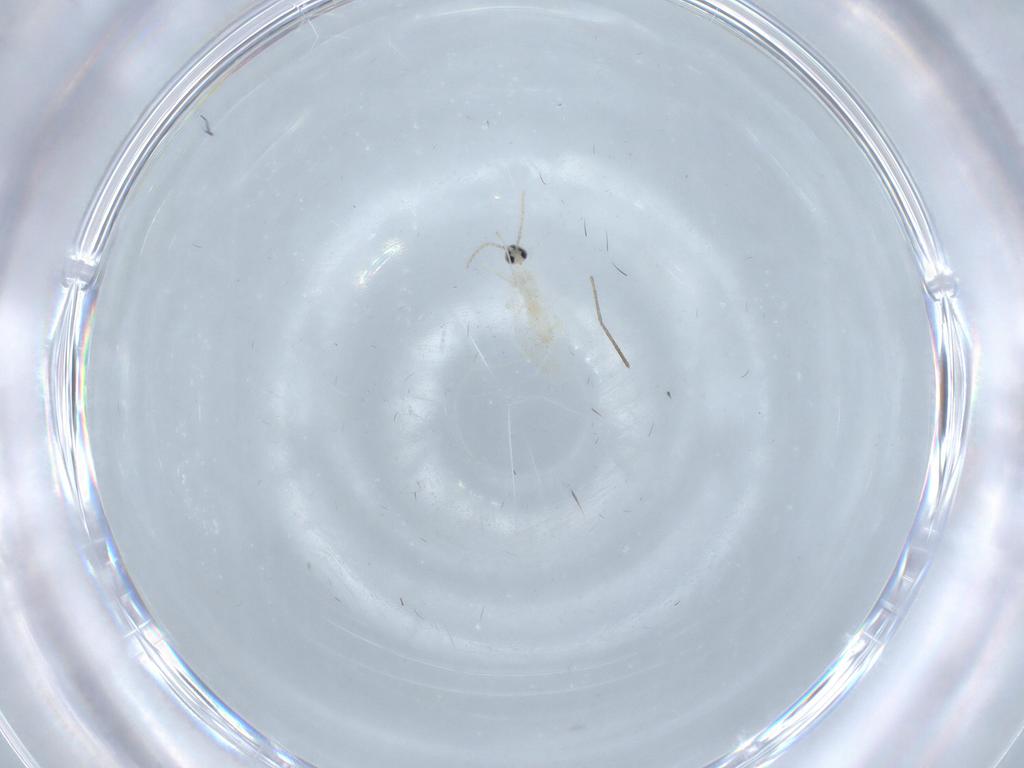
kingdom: Animalia
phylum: Arthropoda
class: Insecta
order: Diptera
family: Cecidomyiidae
